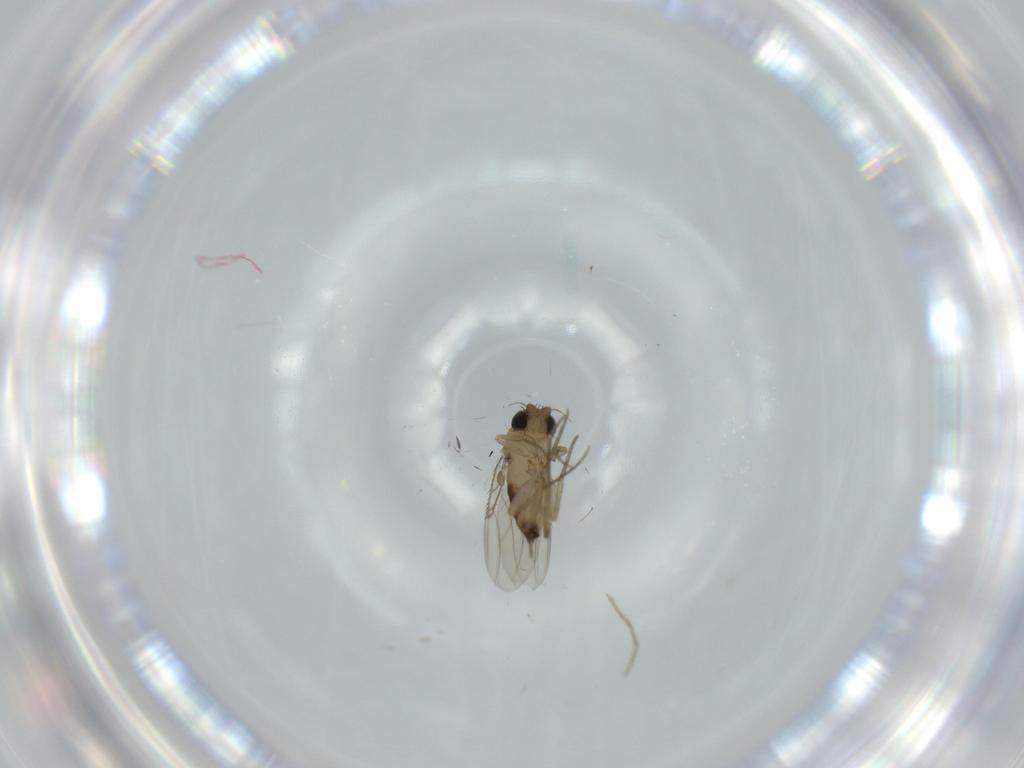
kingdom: Animalia
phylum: Arthropoda
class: Insecta
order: Diptera
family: Phoridae
